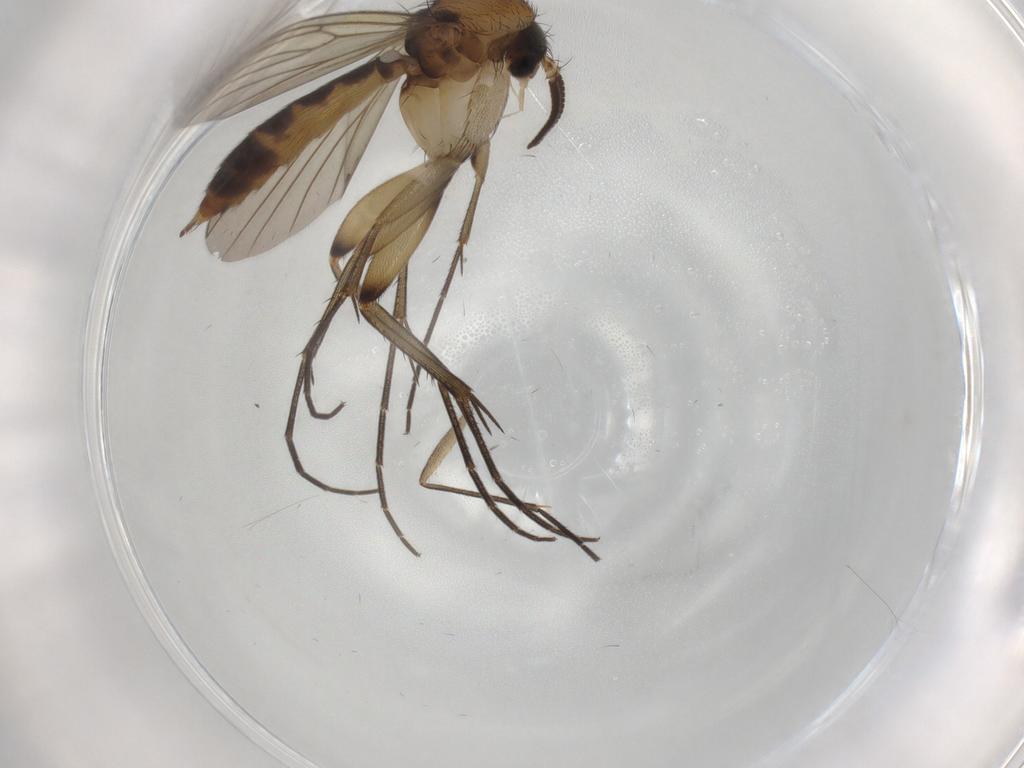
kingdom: Animalia
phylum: Arthropoda
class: Insecta
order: Diptera
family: Mycetophilidae
